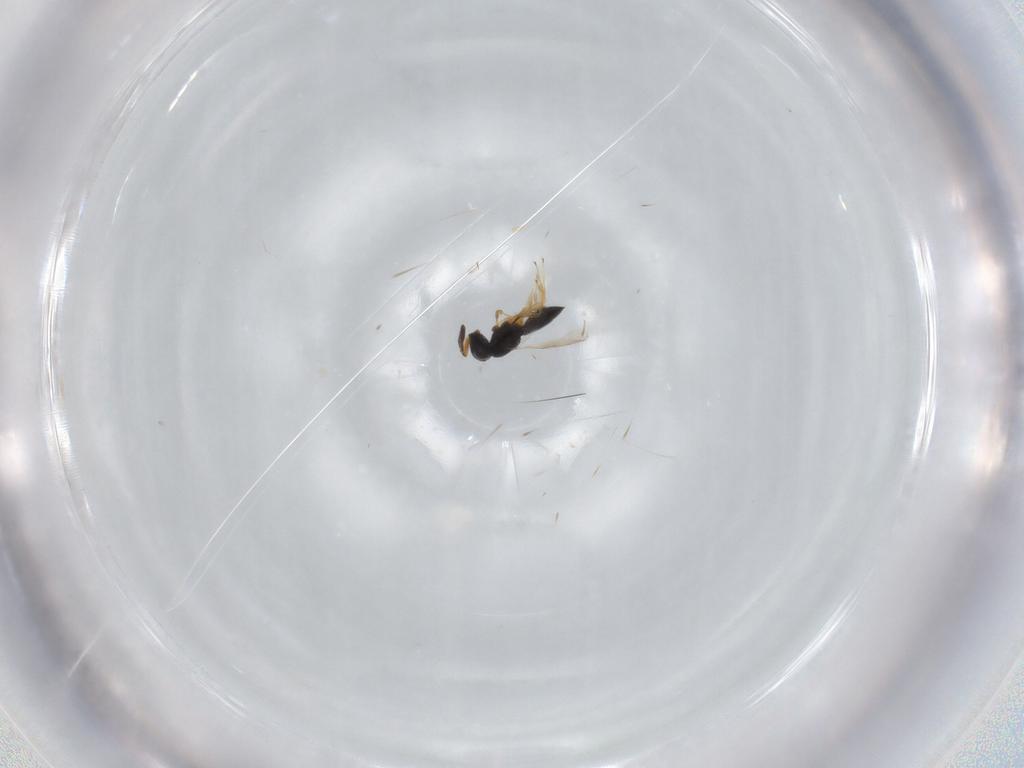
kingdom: Animalia
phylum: Arthropoda
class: Insecta
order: Hymenoptera
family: Scelionidae
